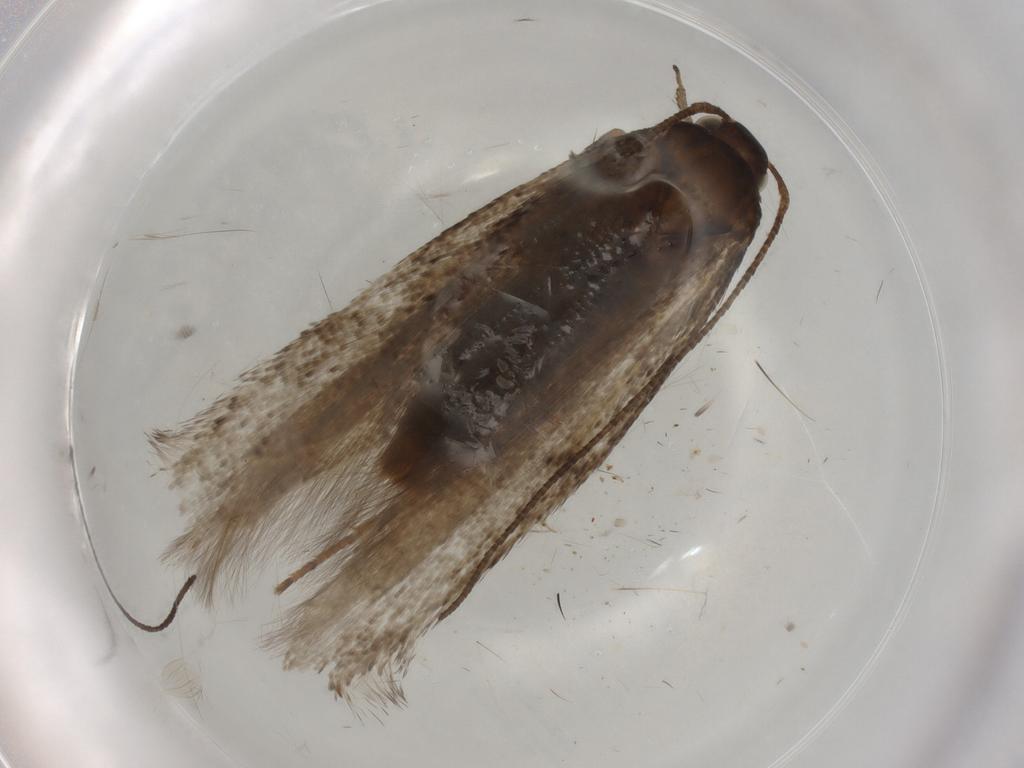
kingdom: Animalia
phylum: Arthropoda
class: Insecta
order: Lepidoptera
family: Gelechiidae
